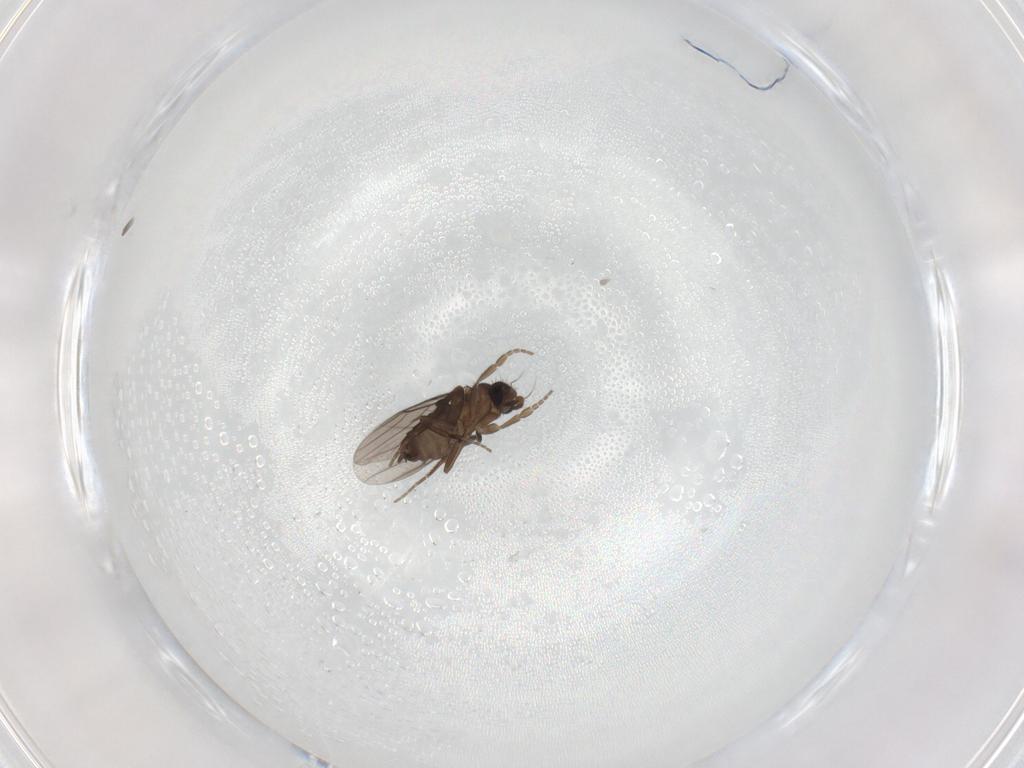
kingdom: Animalia
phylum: Arthropoda
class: Insecta
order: Diptera
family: Phoridae
